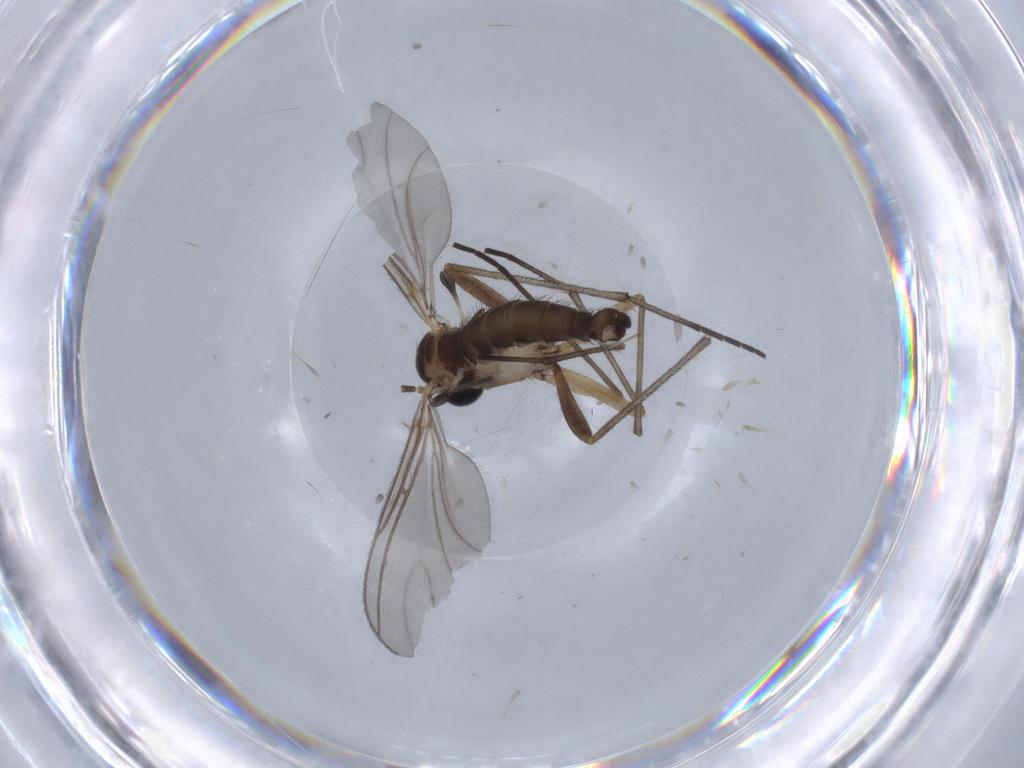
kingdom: Animalia
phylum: Arthropoda
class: Insecta
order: Diptera
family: Sciaridae
